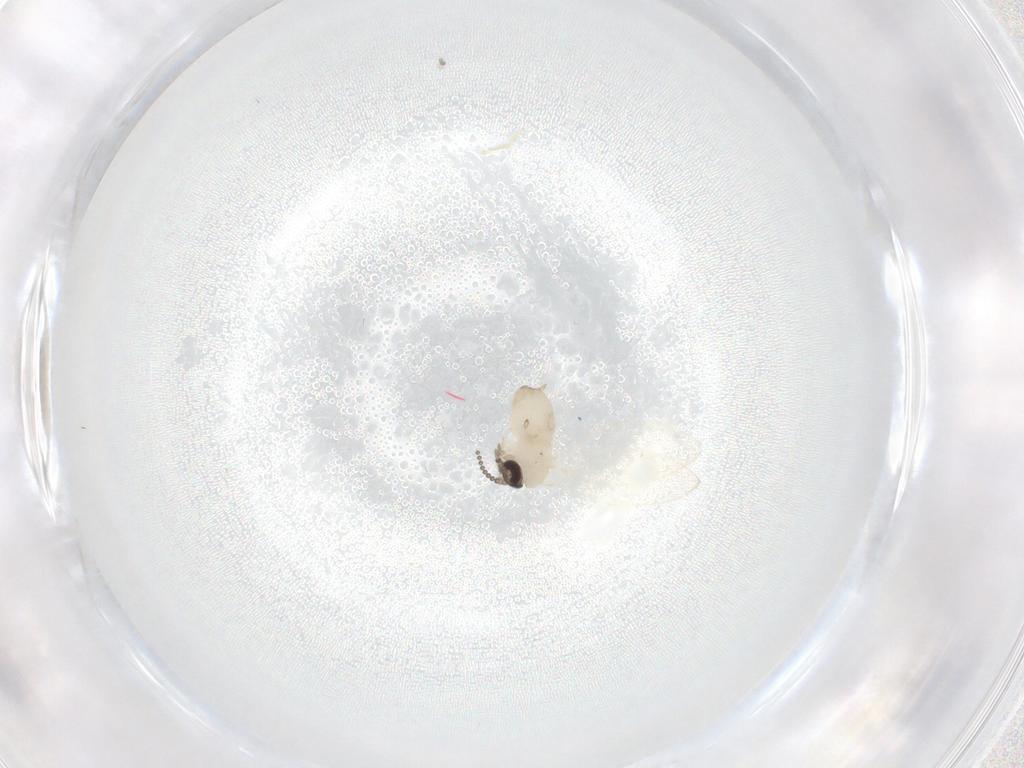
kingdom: Animalia
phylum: Arthropoda
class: Insecta
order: Diptera
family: Psychodidae
